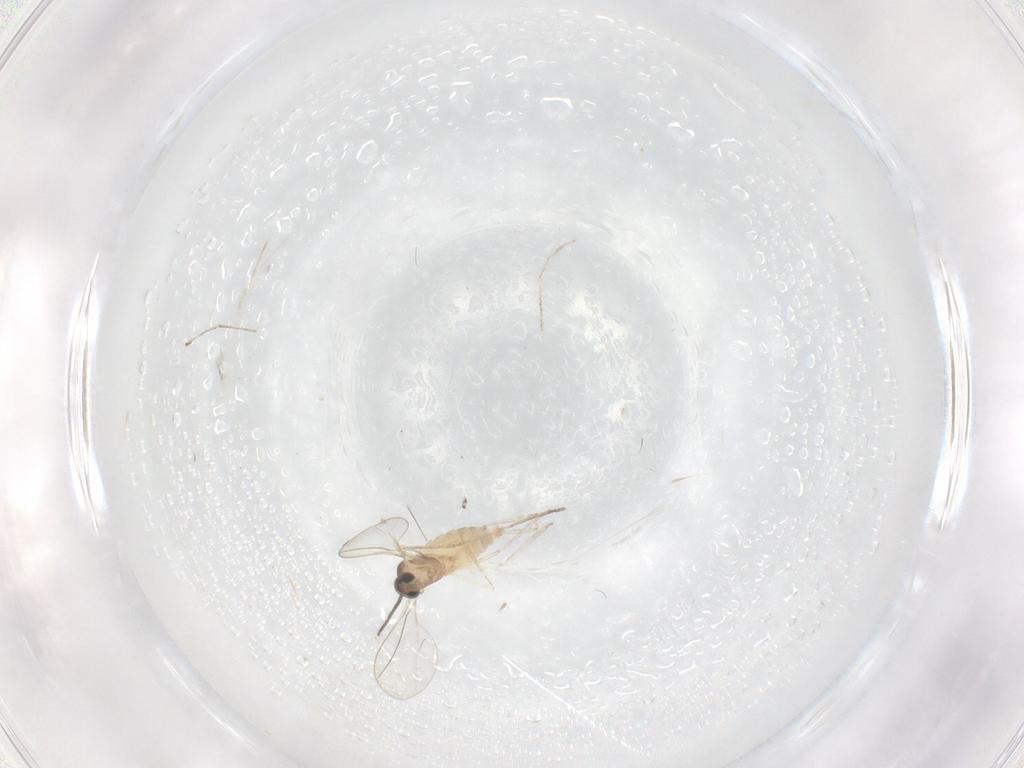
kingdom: Animalia
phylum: Arthropoda
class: Insecta
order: Diptera
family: Cecidomyiidae
